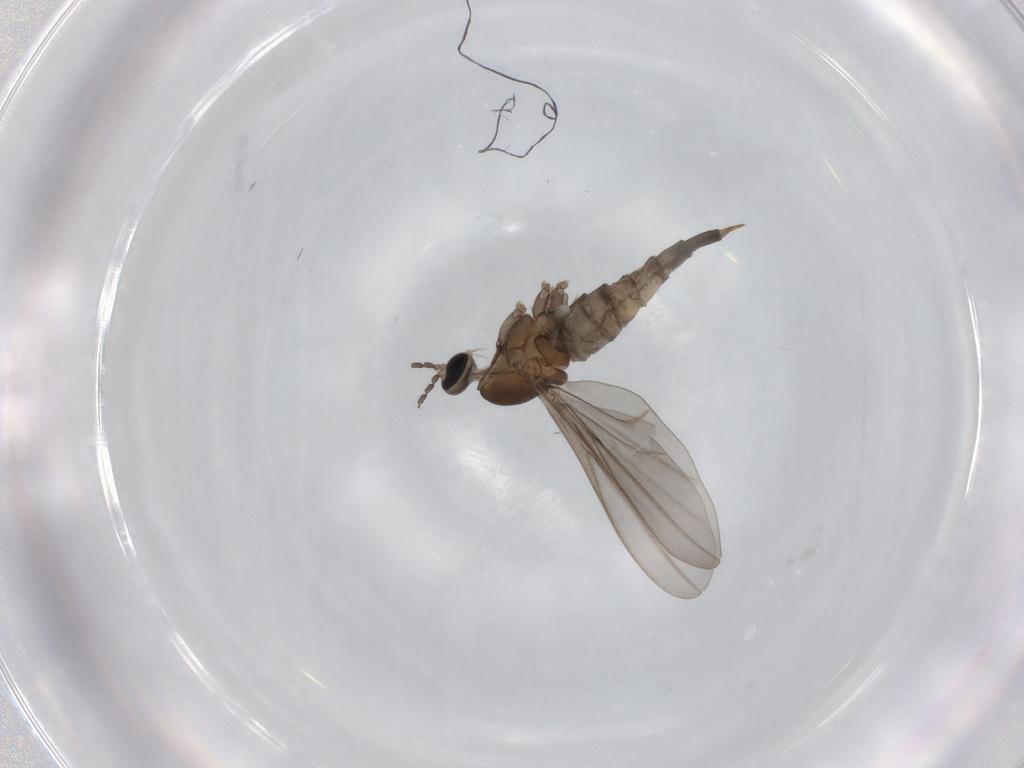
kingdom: Animalia
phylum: Arthropoda
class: Insecta
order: Diptera
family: Cecidomyiidae
